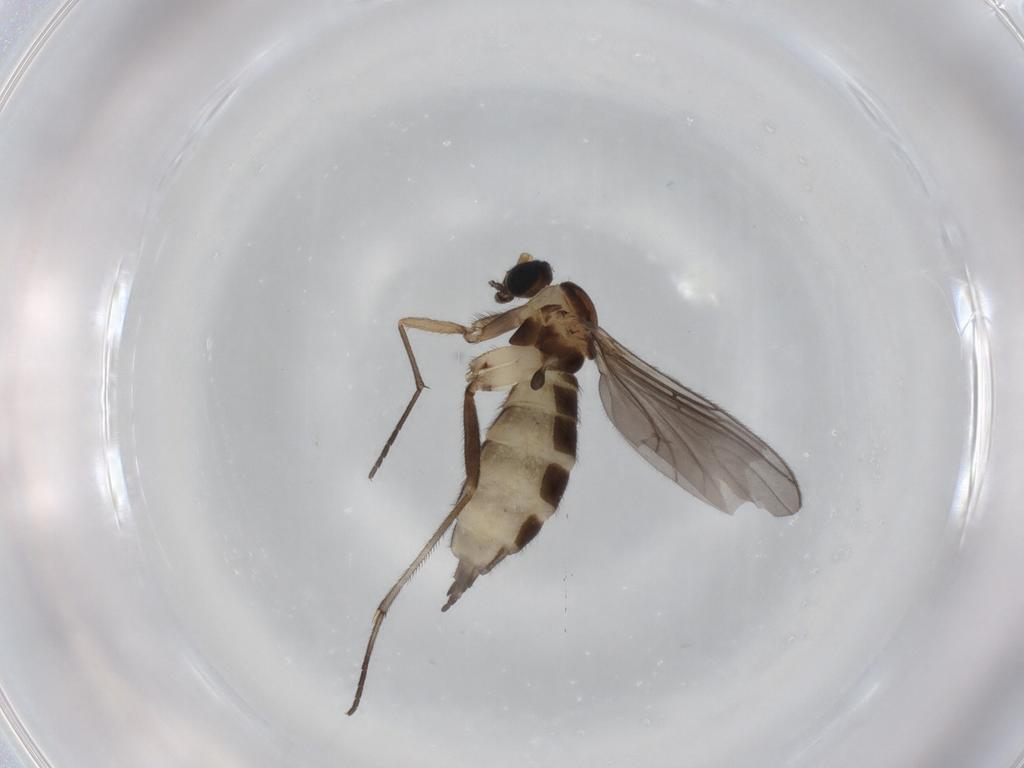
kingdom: Animalia
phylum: Arthropoda
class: Insecta
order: Diptera
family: Sciaridae
